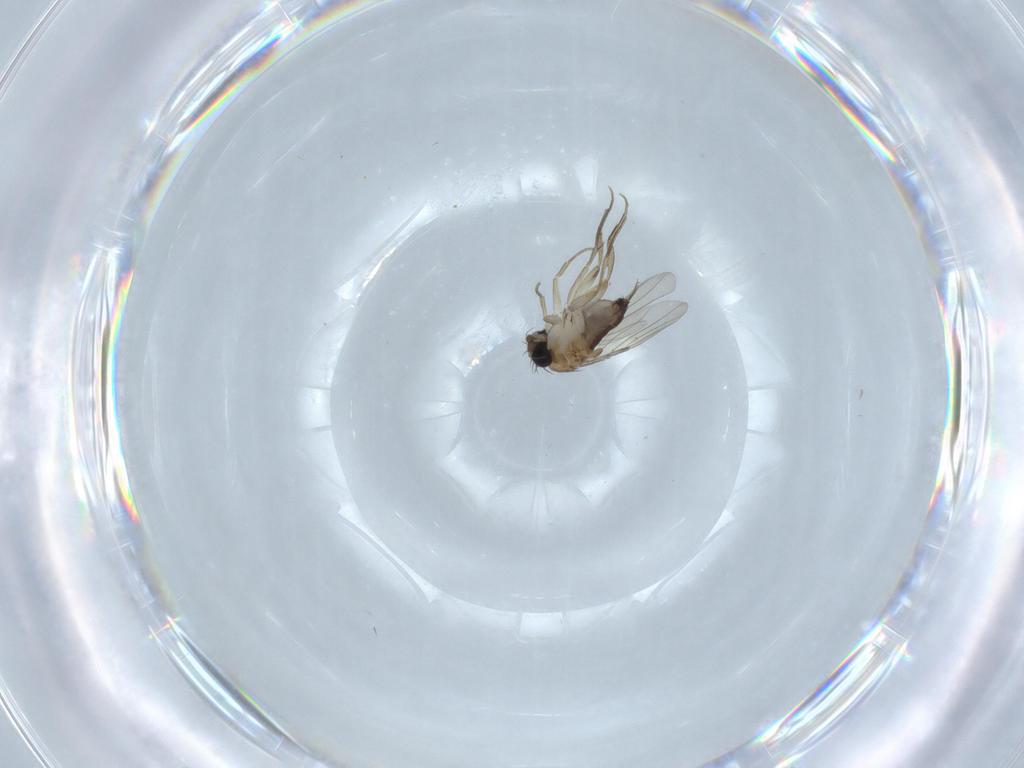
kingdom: Animalia
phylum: Arthropoda
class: Insecta
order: Diptera
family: Phoridae
